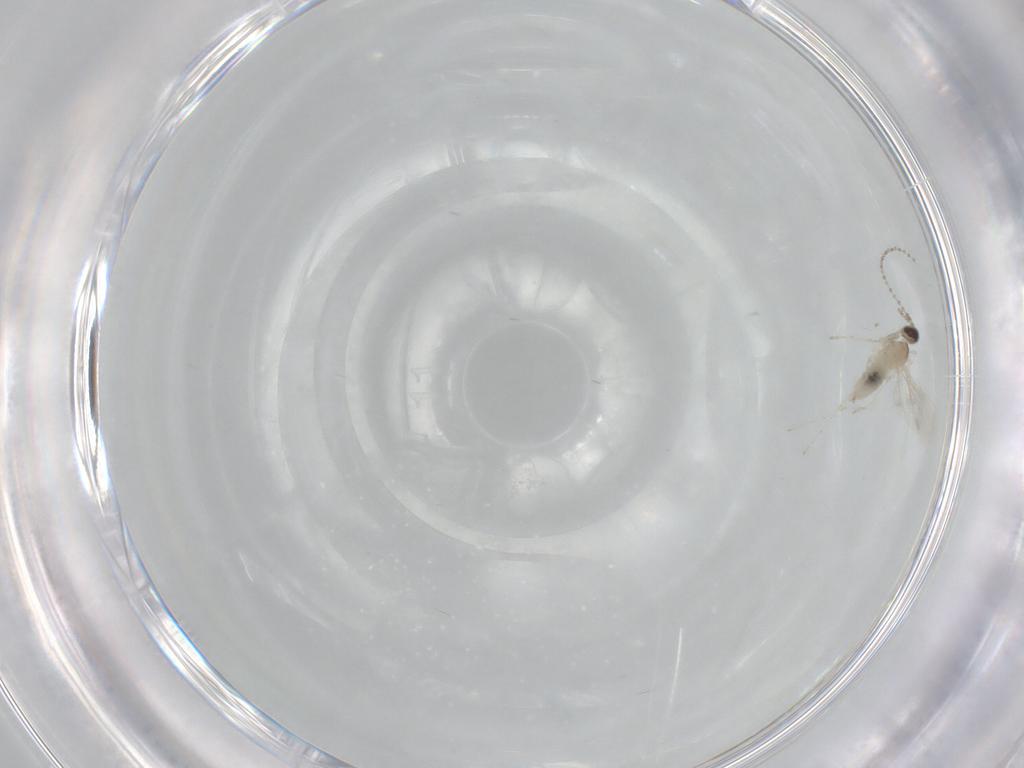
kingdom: Animalia
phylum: Arthropoda
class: Insecta
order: Diptera
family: Cecidomyiidae
